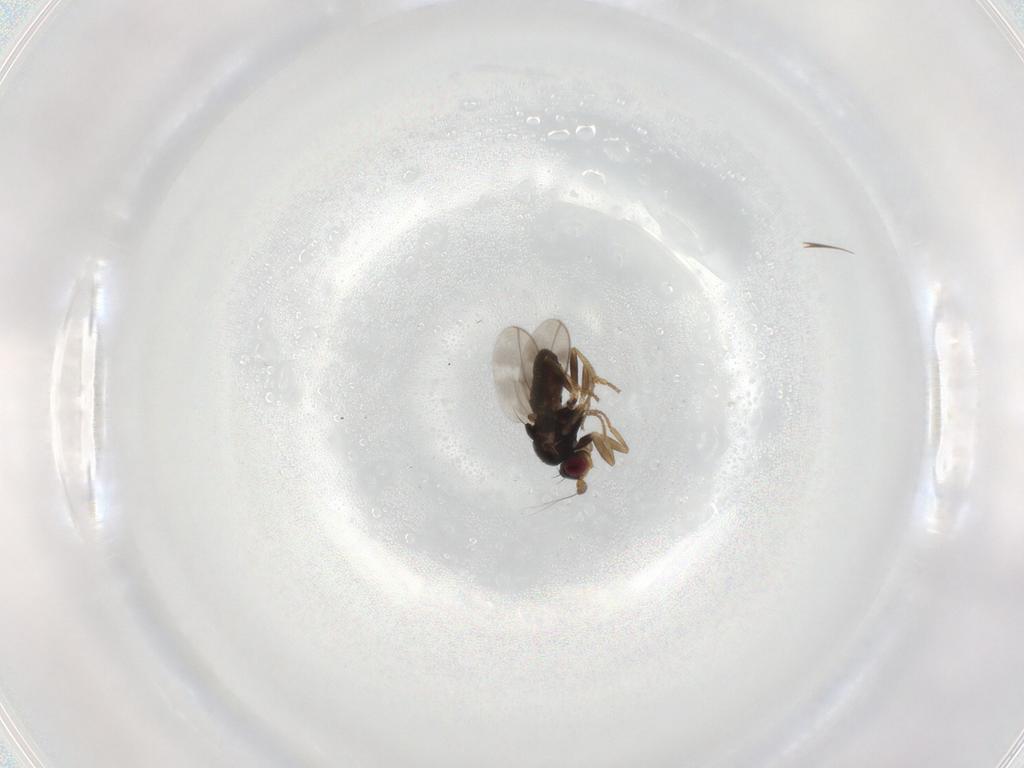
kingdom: Animalia
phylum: Arthropoda
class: Insecta
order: Diptera
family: Sphaeroceridae
